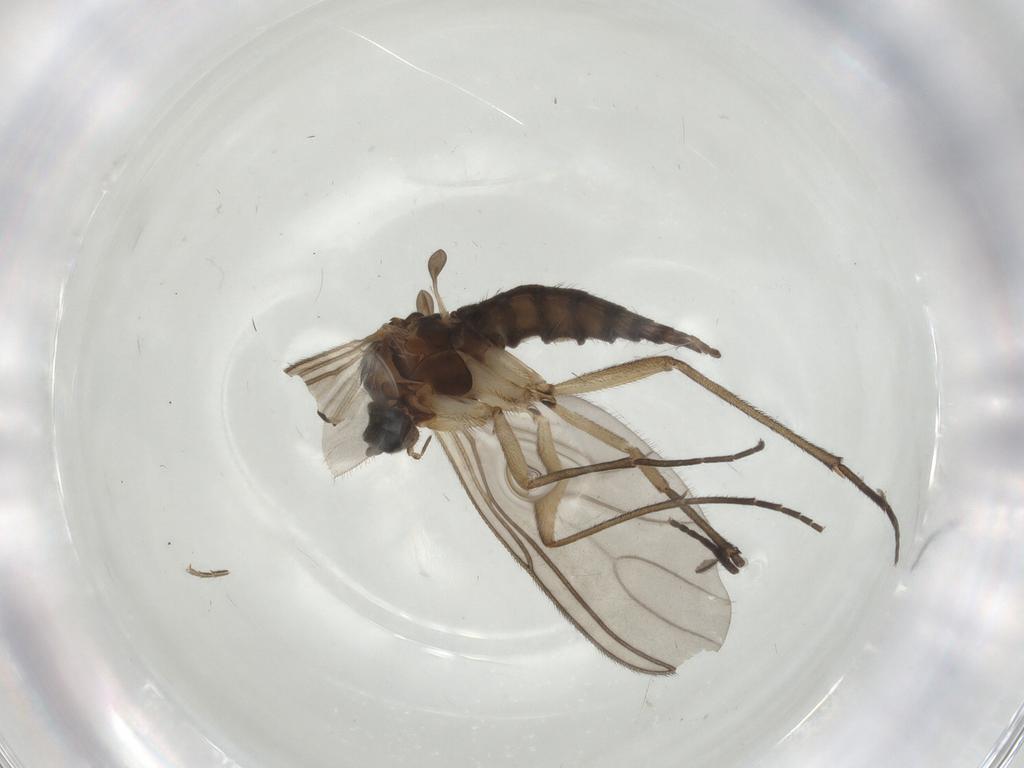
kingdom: Animalia
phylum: Arthropoda
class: Insecta
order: Diptera
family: Sciaridae
